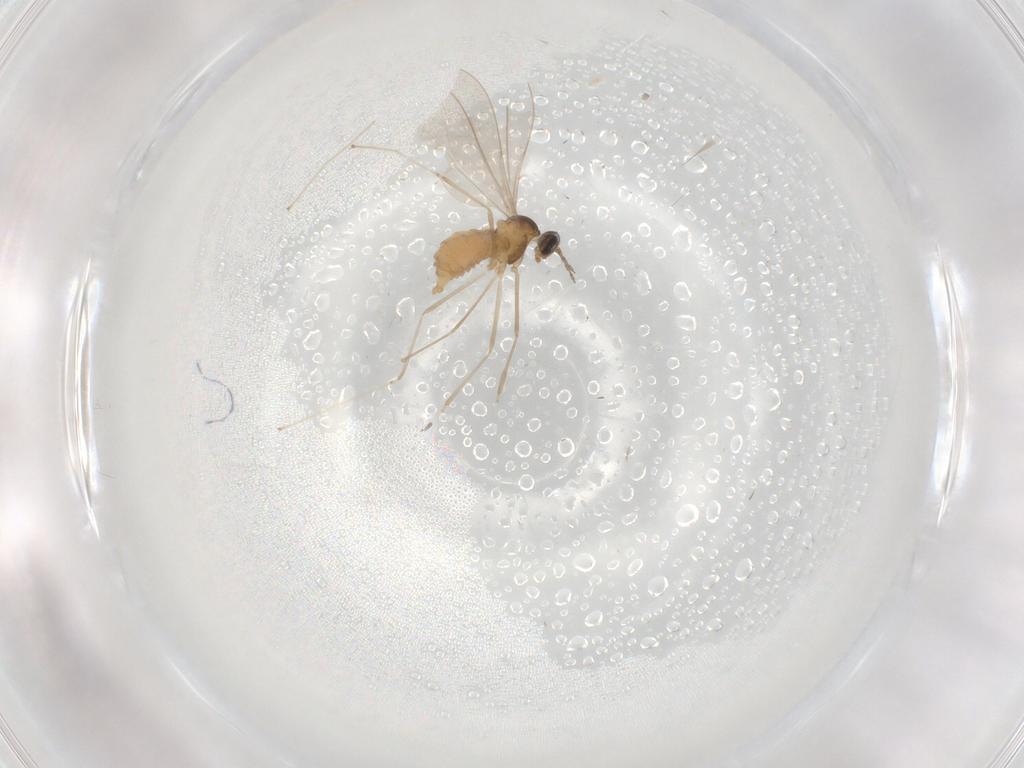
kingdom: Animalia
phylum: Arthropoda
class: Insecta
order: Diptera
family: Cecidomyiidae
